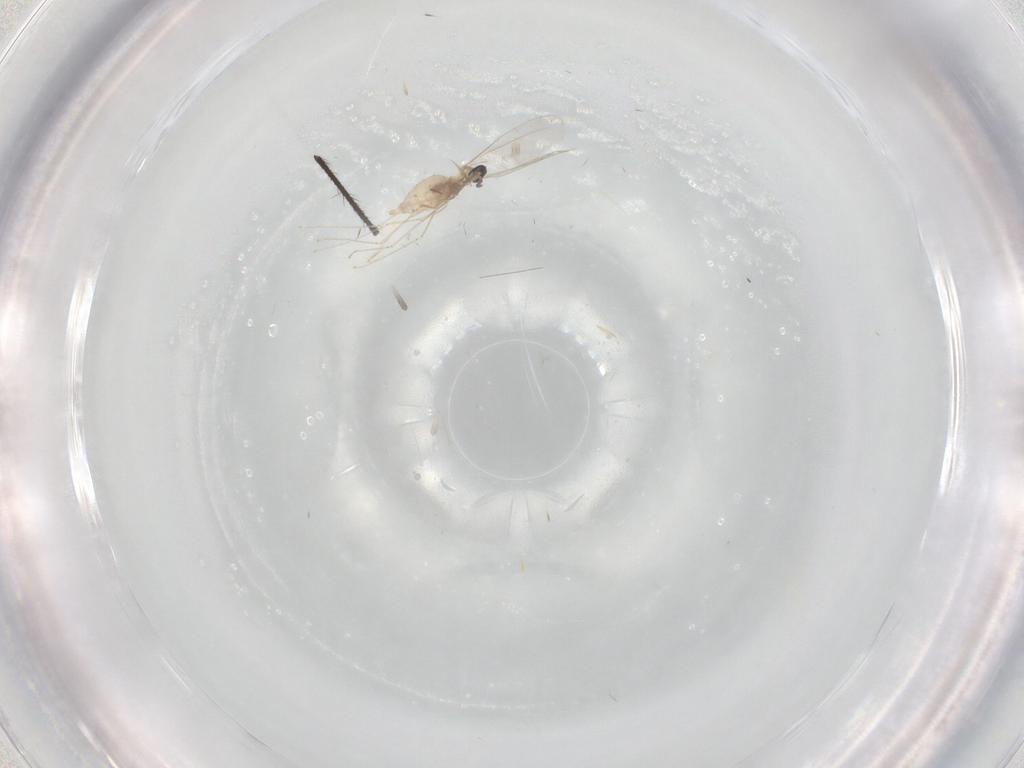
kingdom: Animalia
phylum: Arthropoda
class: Insecta
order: Diptera
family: Limoniidae
